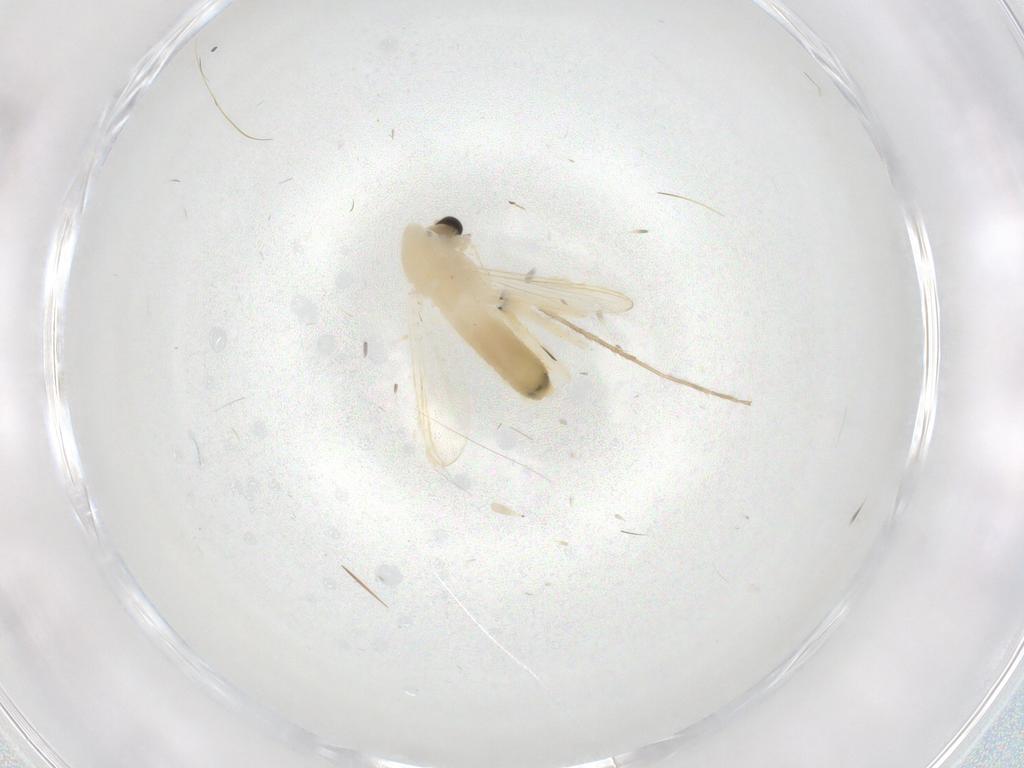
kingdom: Animalia
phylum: Arthropoda
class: Insecta
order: Diptera
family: Chironomidae
